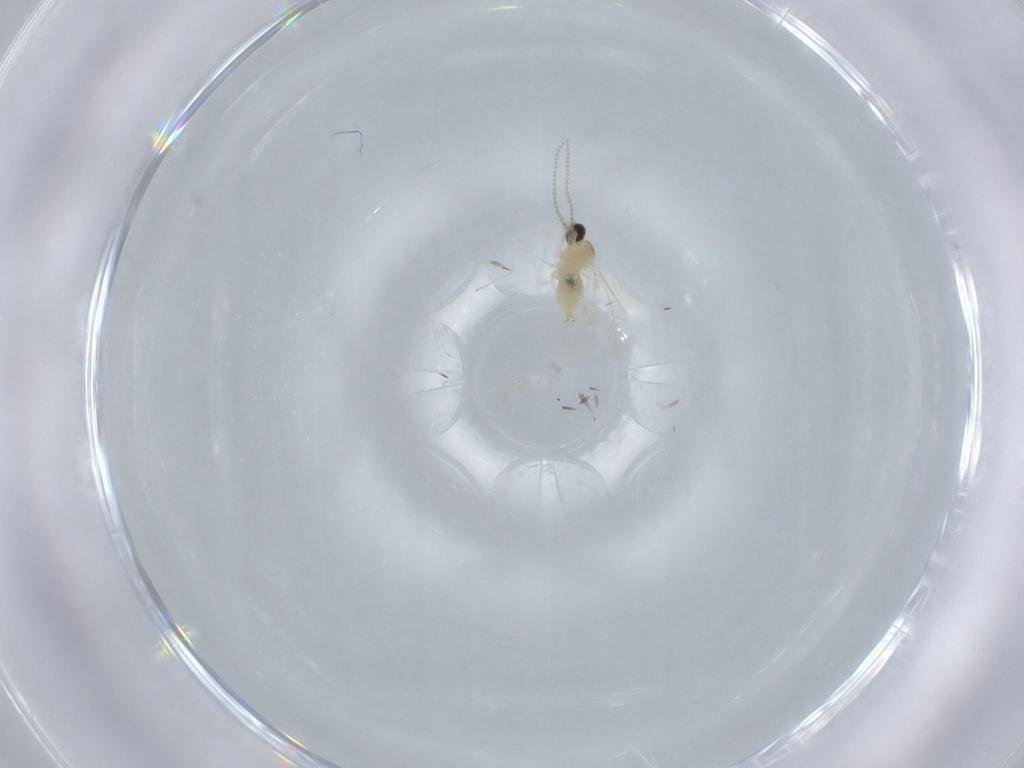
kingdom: Animalia
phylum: Arthropoda
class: Insecta
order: Diptera
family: Cecidomyiidae
